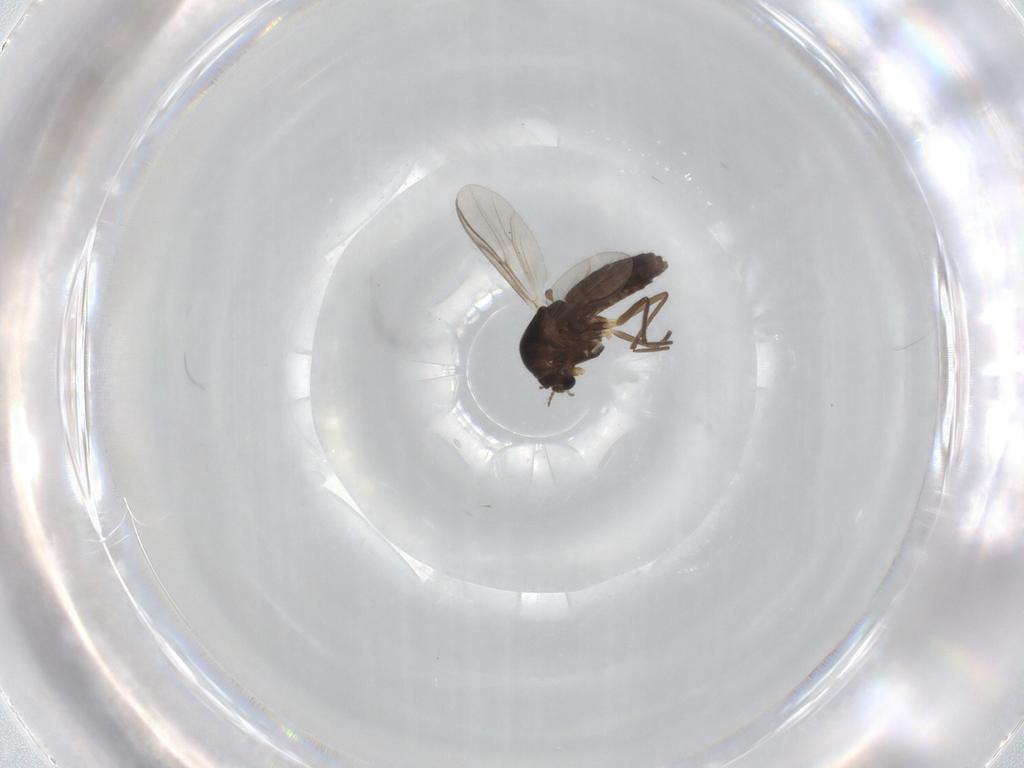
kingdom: Animalia
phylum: Arthropoda
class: Insecta
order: Diptera
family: Chironomidae
